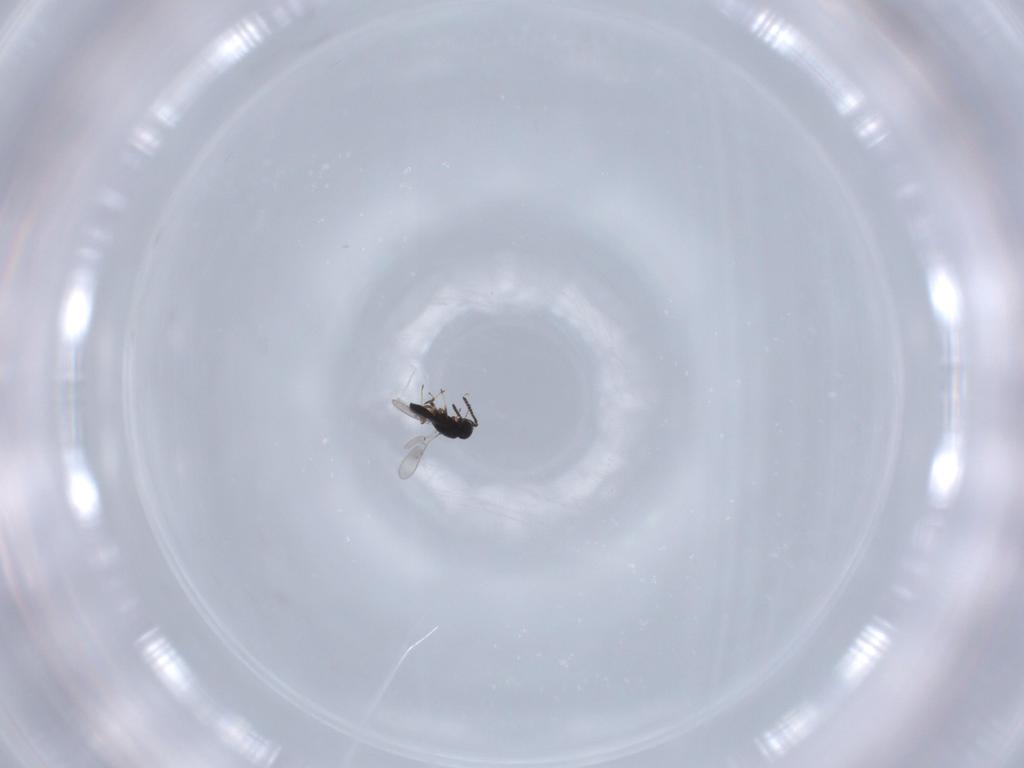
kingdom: Animalia
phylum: Arthropoda
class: Insecta
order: Hymenoptera
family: Scelionidae
